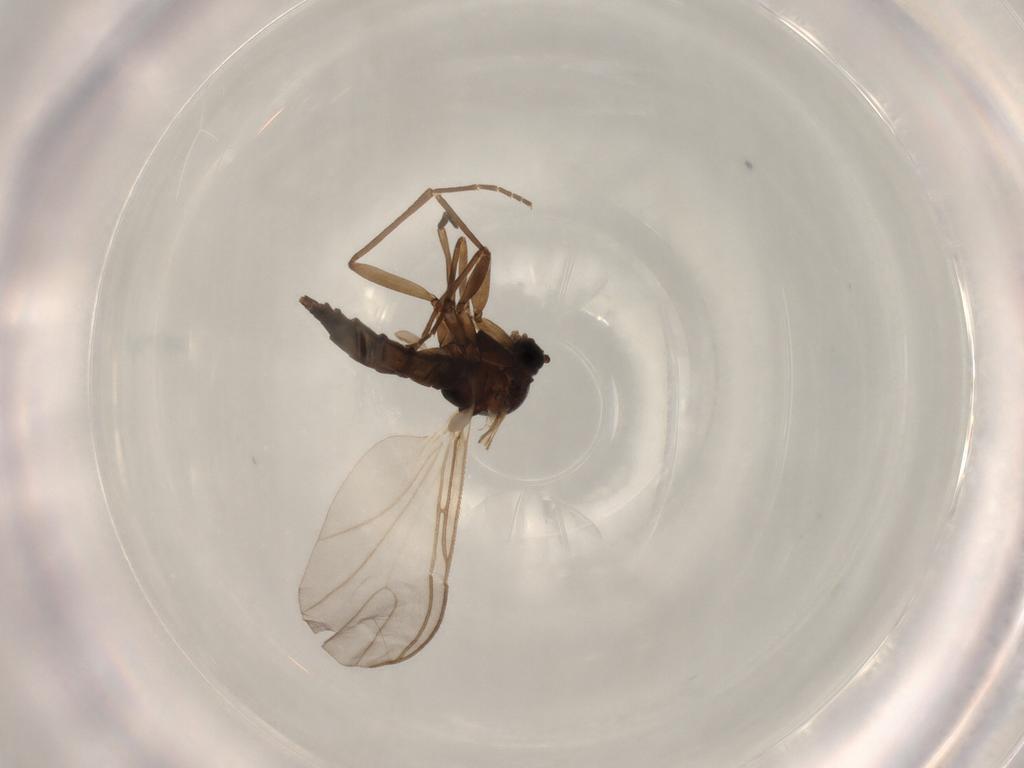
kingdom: Animalia
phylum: Arthropoda
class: Insecta
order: Diptera
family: Sciaridae
